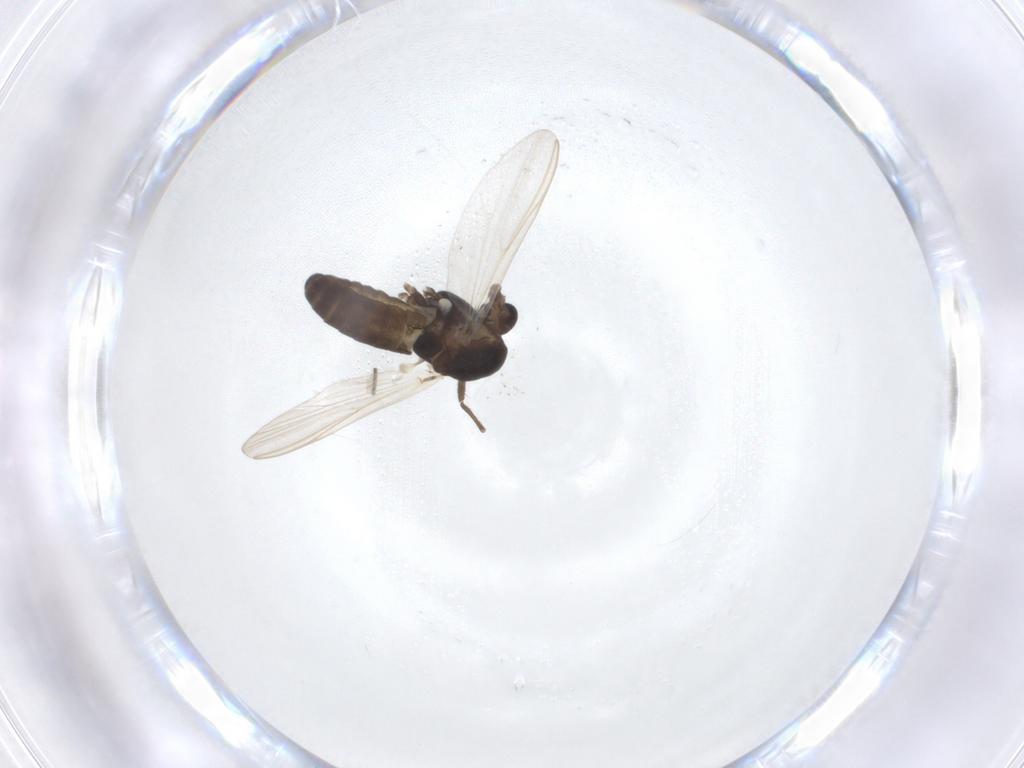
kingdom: Animalia
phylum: Arthropoda
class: Insecta
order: Diptera
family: Chironomidae
